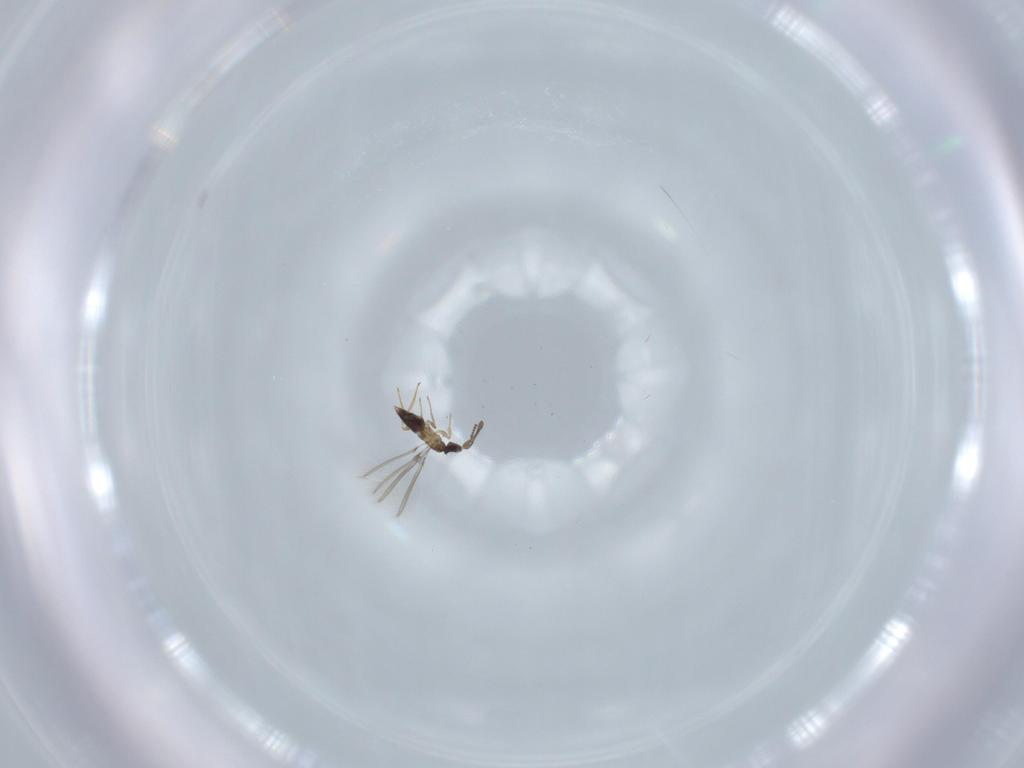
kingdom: Animalia
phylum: Arthropoda
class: Insecta
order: Hymenoptera
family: Mymaridae
